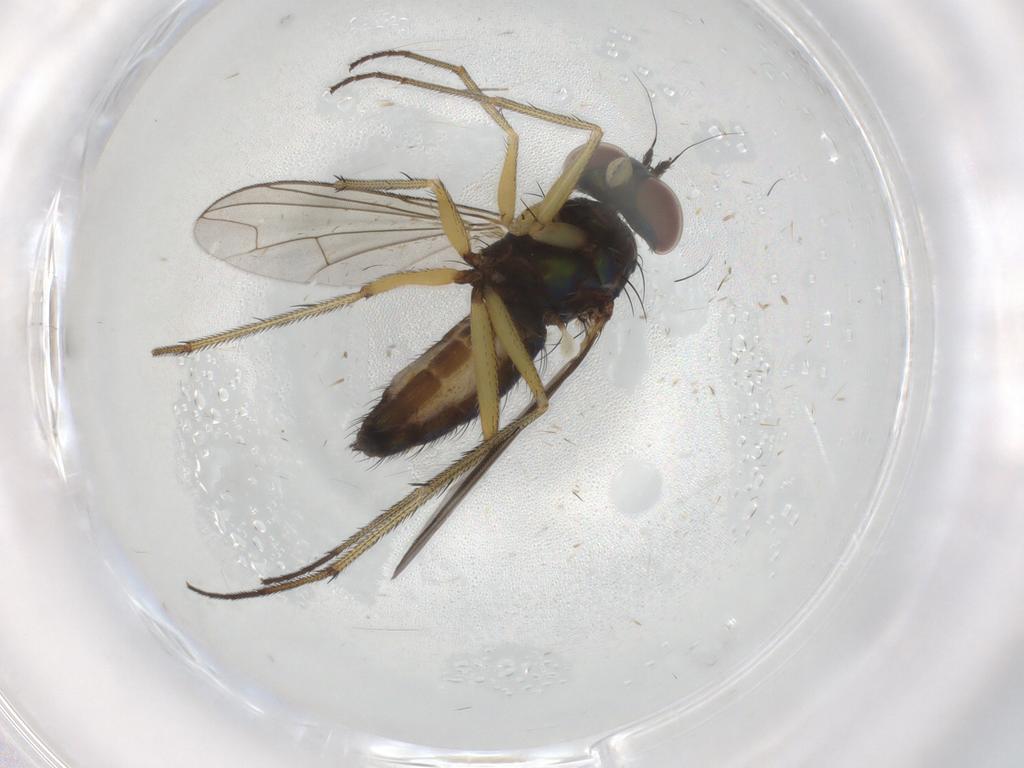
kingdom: Animalia
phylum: Arthropoda
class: Insecta
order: Diptera
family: Dolichopodidae
